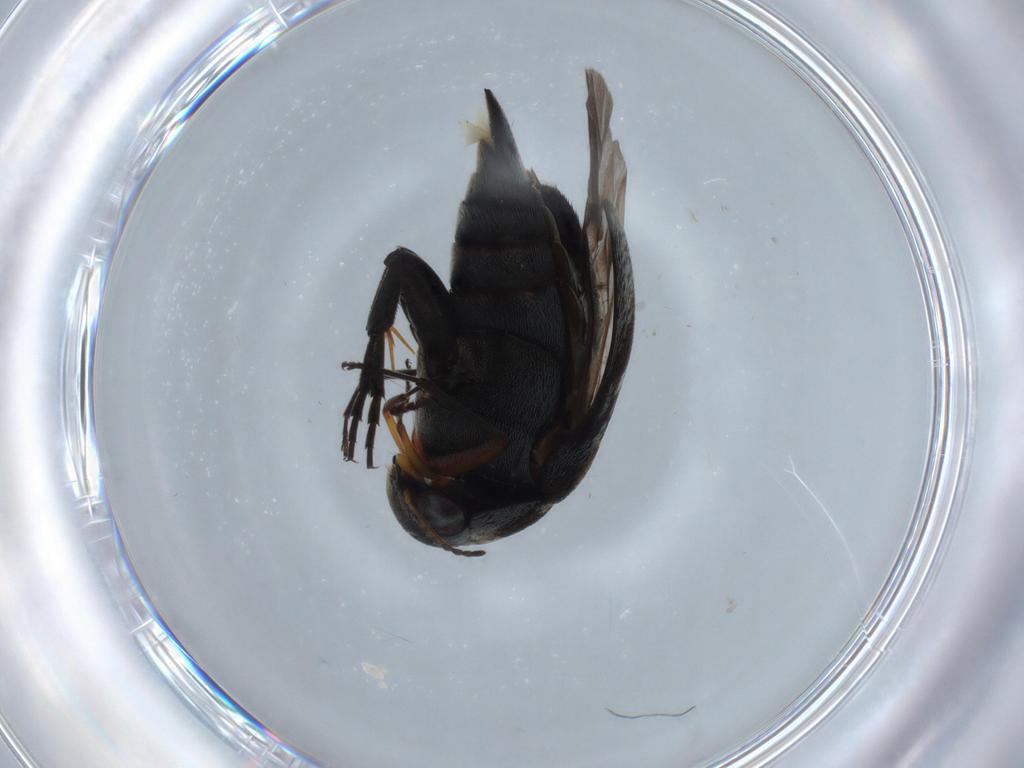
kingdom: Animalia
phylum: Arthropoda
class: Insecta
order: Coleoptera
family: Mordellidae
